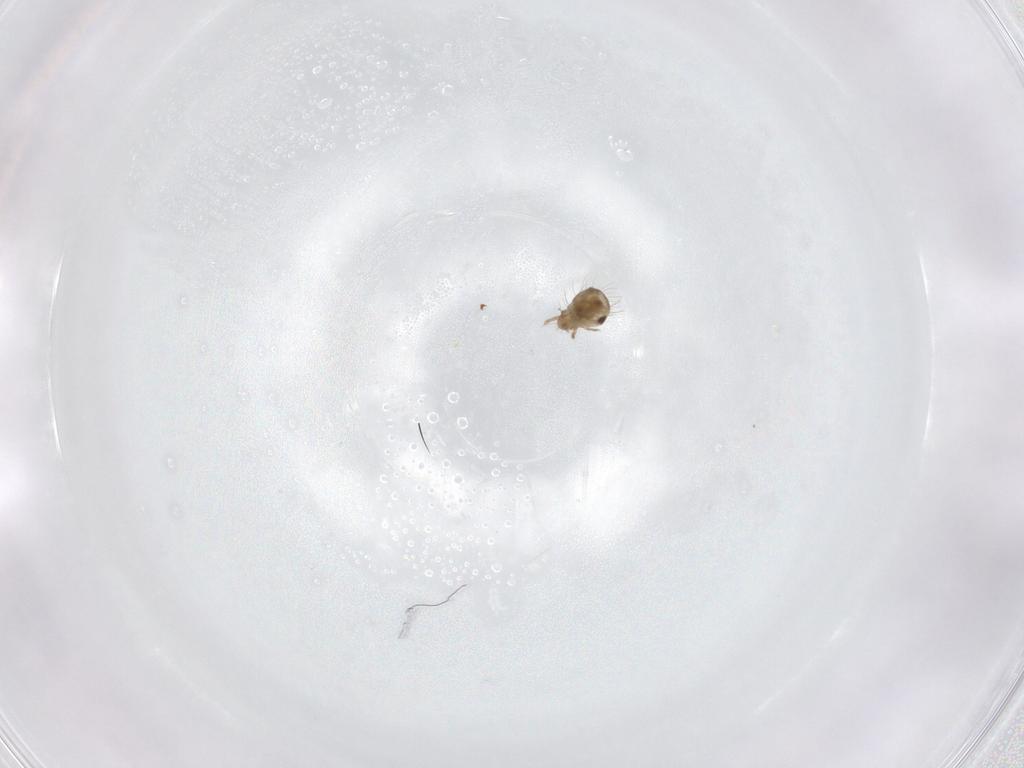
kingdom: Animalia
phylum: Arthropoda
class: Arachnida
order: Sarcoptiformes
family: Humerobatidae
